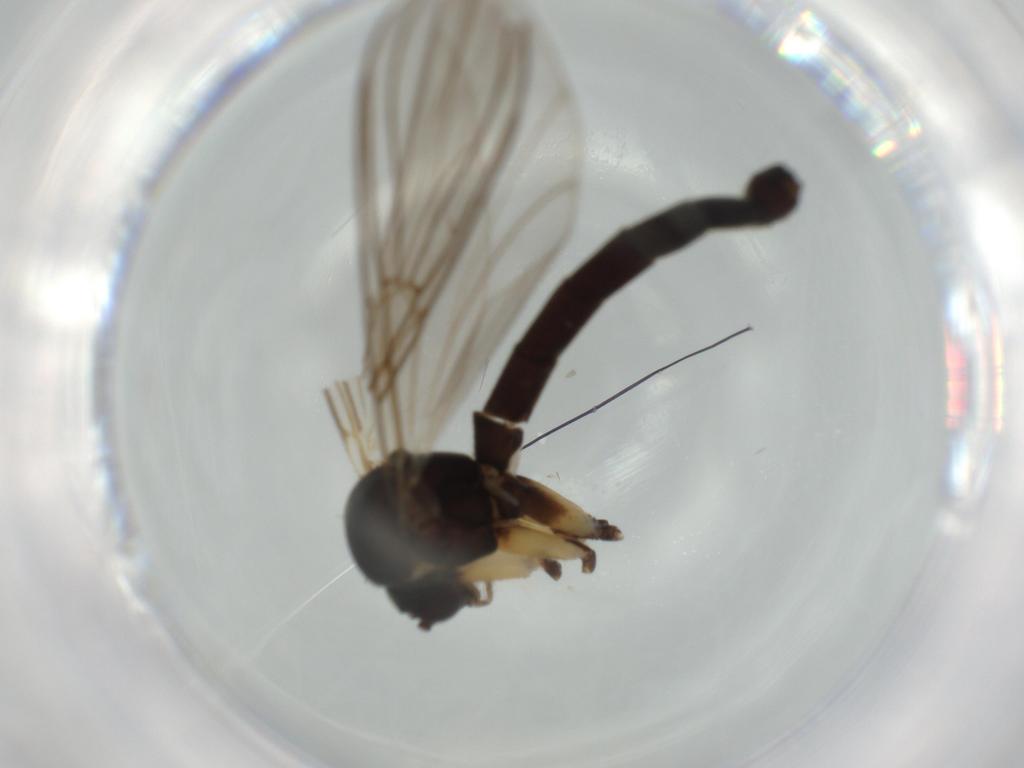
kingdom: Animalia
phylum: Arthropoda
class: Insecta
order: Diptera
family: Anthomyiidae
